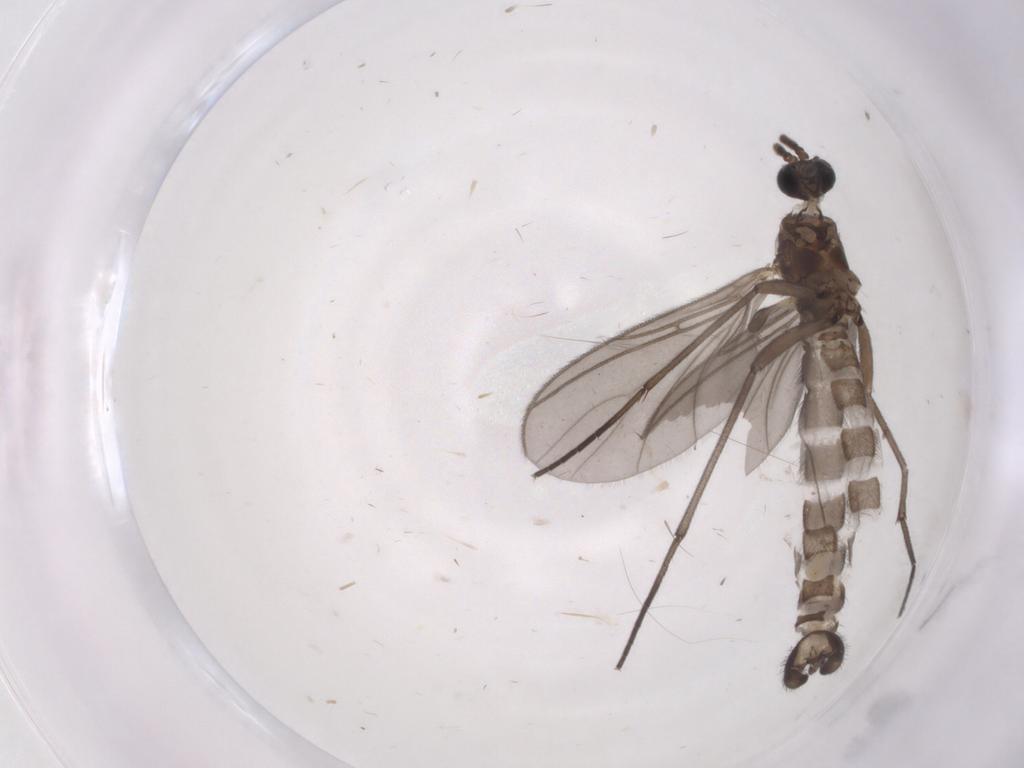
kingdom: Animalia
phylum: Arthropoda
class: Insecta
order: Diptera
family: Sciaridae
